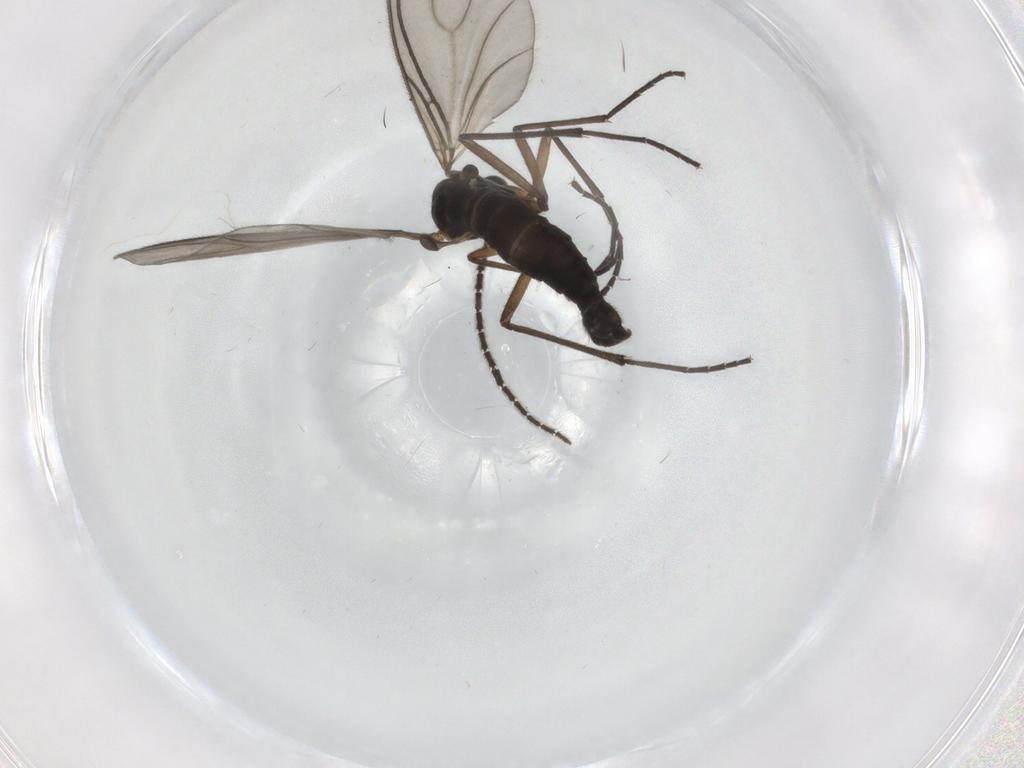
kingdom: Animalia
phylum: Arthropoda
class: Insecta
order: Diptera
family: Sciaridae
